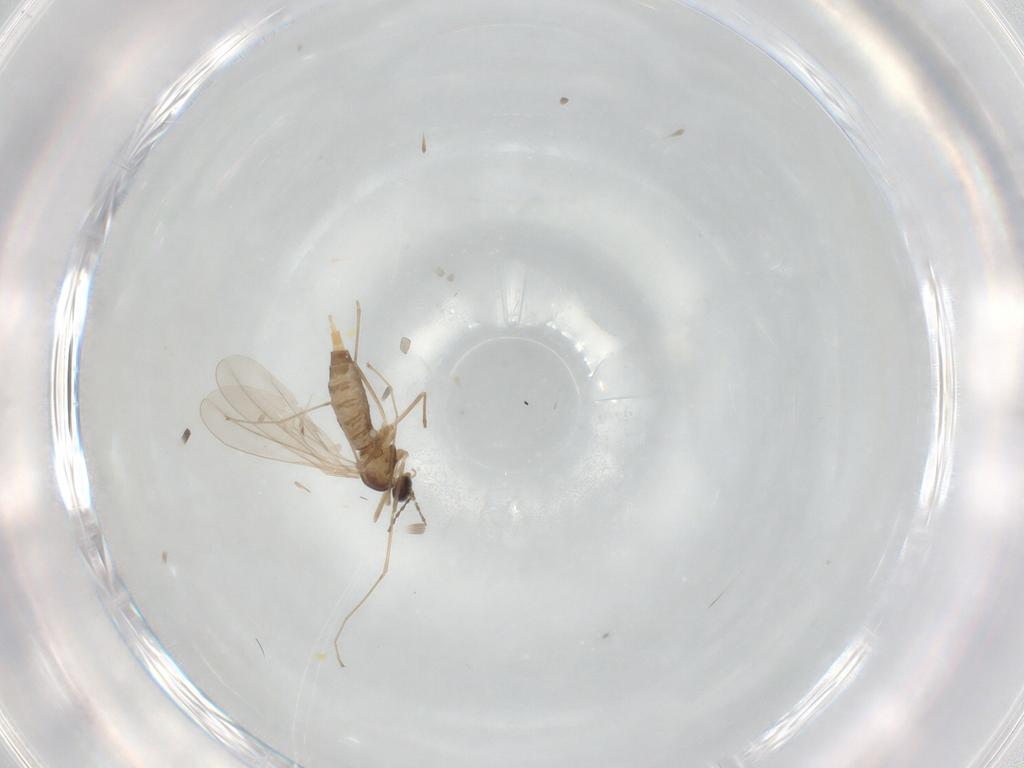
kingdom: Animalia
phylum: Arthropoda
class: Insecta
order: Diptera
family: Cecidomyiidae
